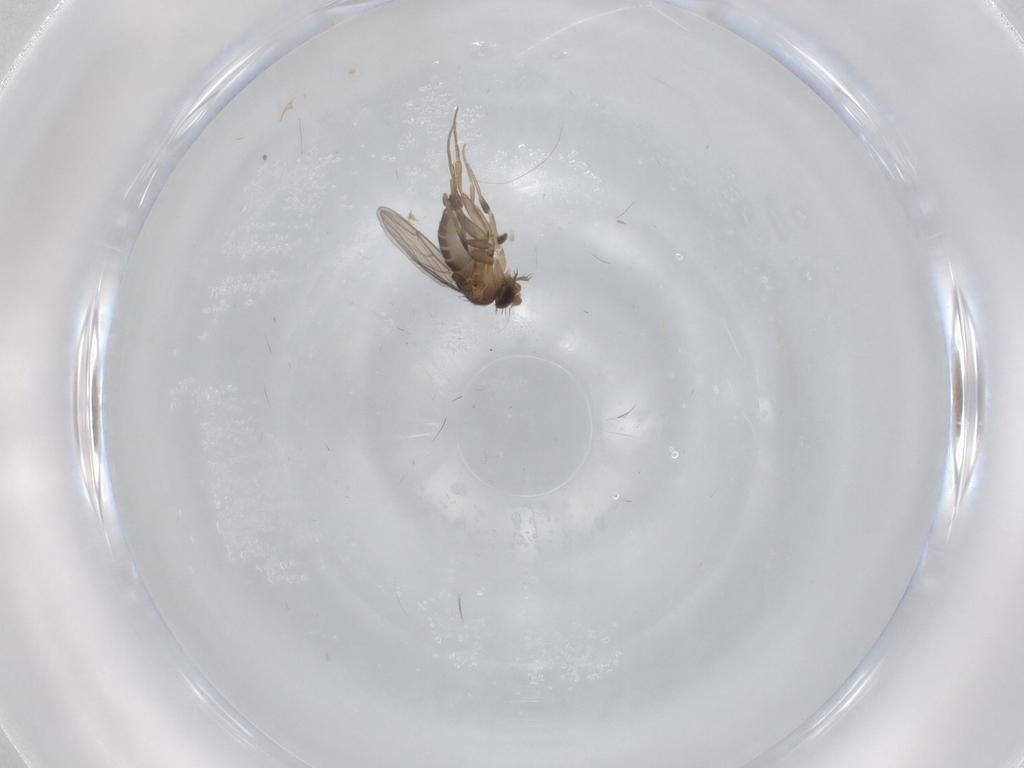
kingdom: Animalia
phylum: Arthropoda
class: Insecta
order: Diptera
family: Phoridae
